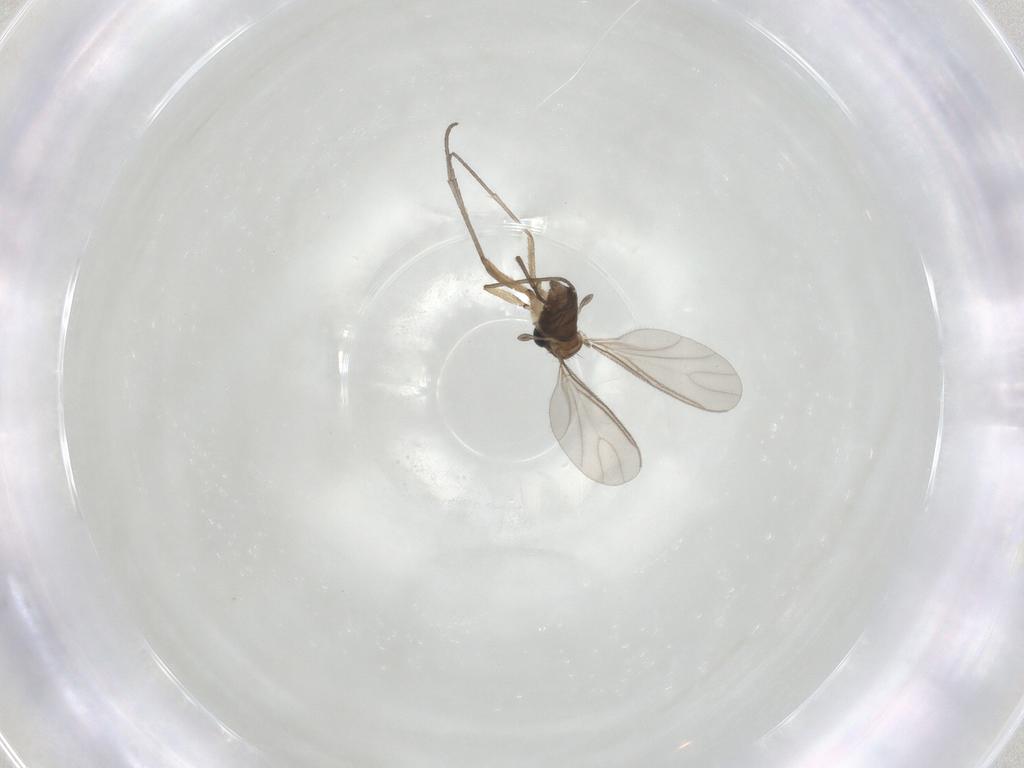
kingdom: Animalia
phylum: Arthropoda
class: Insecta
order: Diptera
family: Sciaridae
